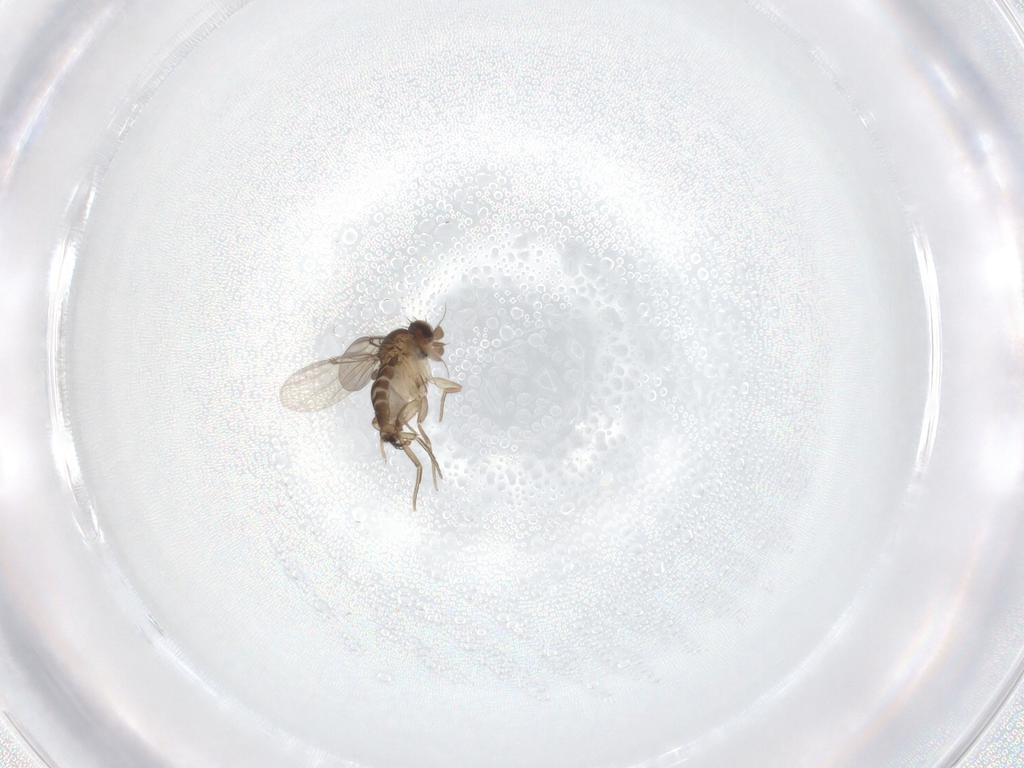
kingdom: Animalia
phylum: Arthropoda
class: Insecta
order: Diptera
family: Phoridae
